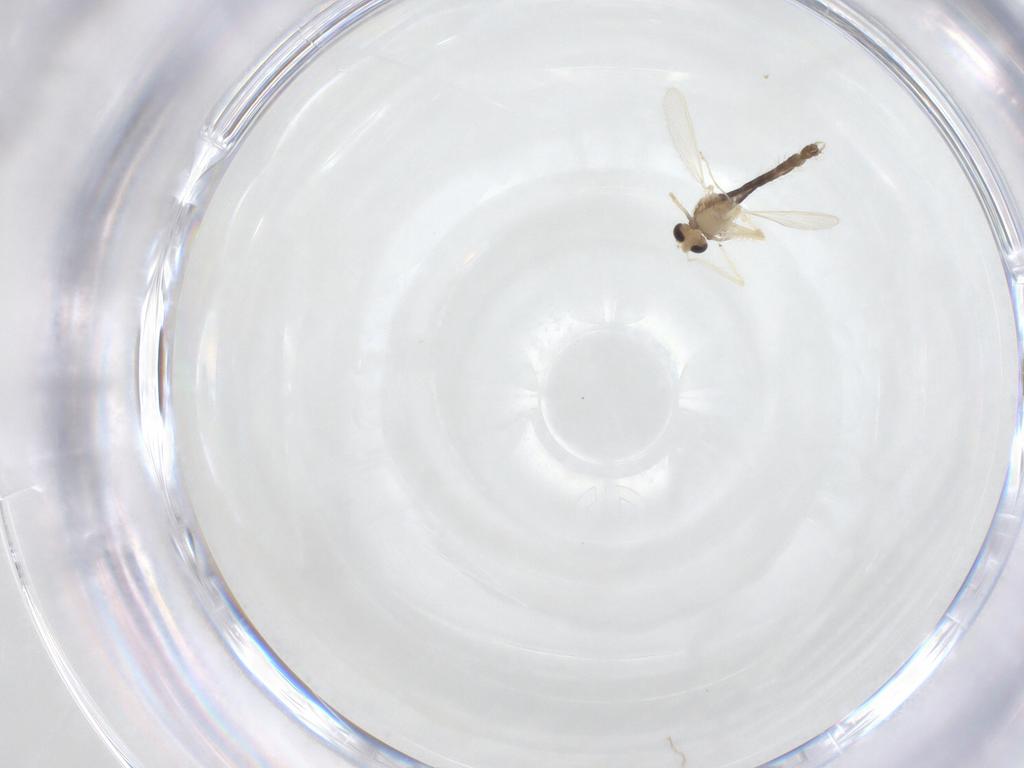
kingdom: Animalia
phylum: Arthropoda
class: Insecta
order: Diptera
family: Chironomidae
